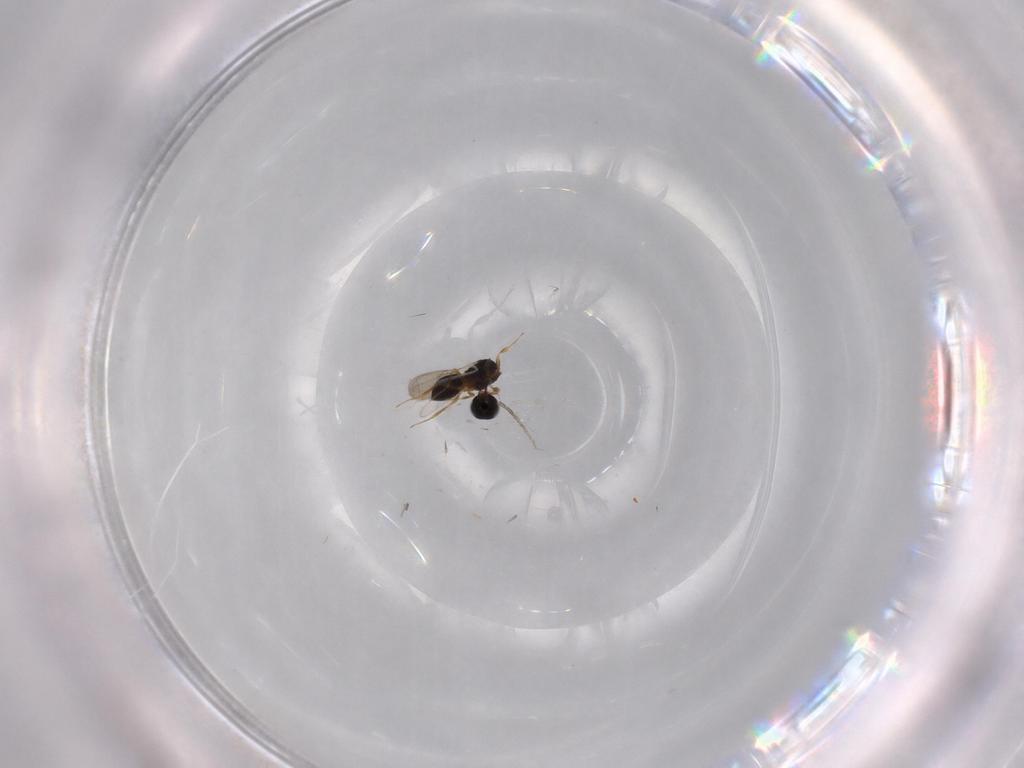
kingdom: Animalia
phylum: Arthropoda
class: Insecta
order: Hymenoptera
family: Scelionidae
